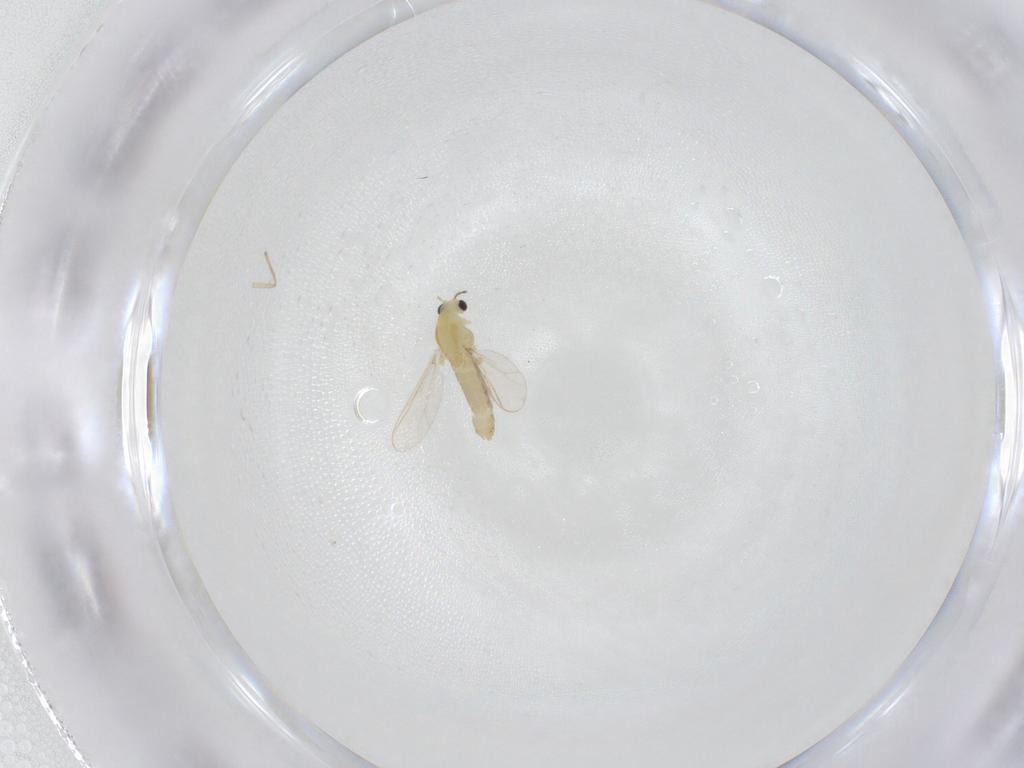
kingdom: Animalia
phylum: Arthropoda
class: Insecta
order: Diptera
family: Chironomidae
